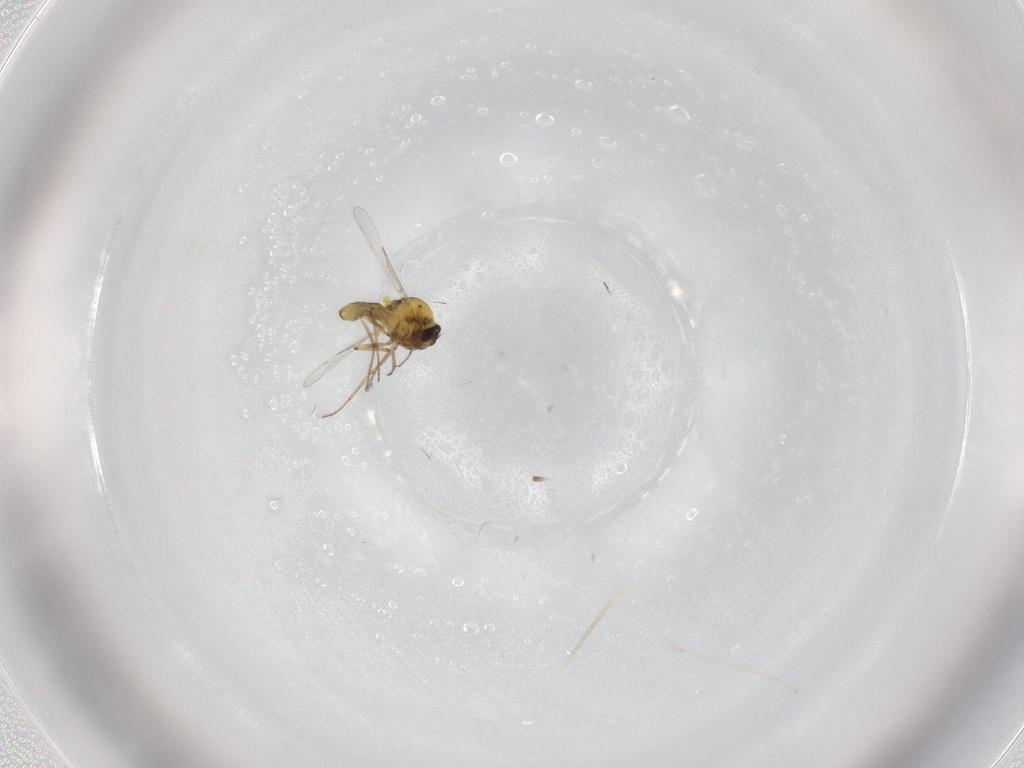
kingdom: Animalia
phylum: Arthropoda
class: Insecta
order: Diptera
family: Ceratopogonidae
